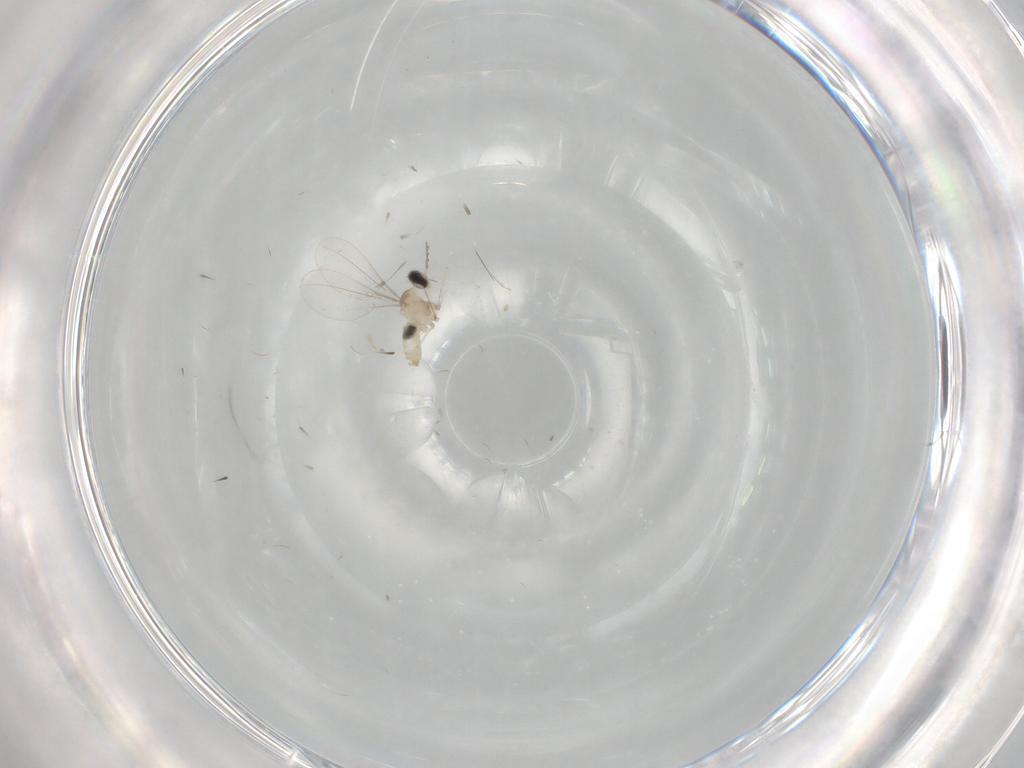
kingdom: Animalia
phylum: Arthropoda
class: Insecta
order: Diptera
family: Cecidomyiidae
